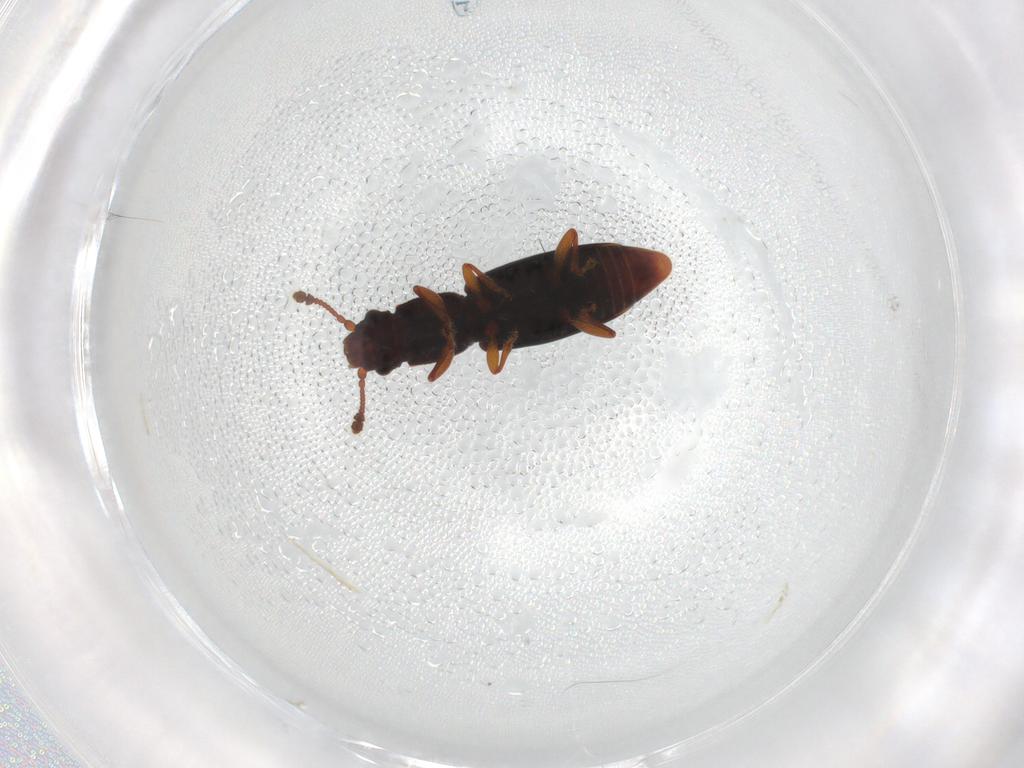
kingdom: Animalia
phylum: Arthropoda
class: Insecta
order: Coleoptera
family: Monotomidae
